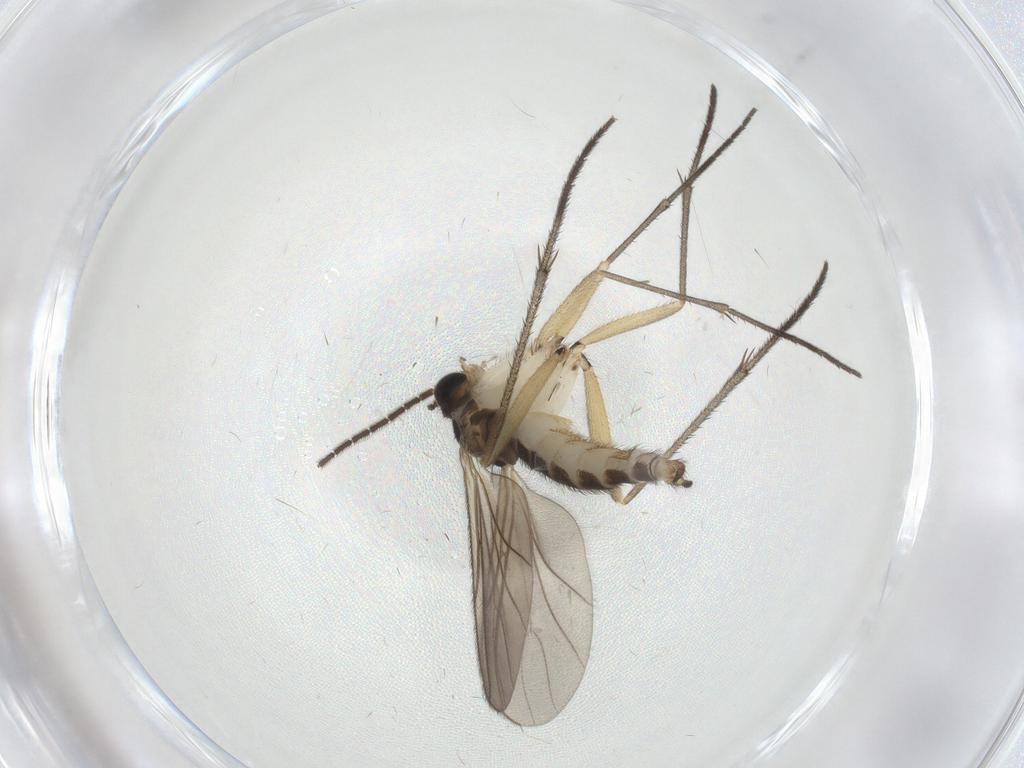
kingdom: Animalia
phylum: Arthropoda
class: Insecta
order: Diptera
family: Sciaridae
